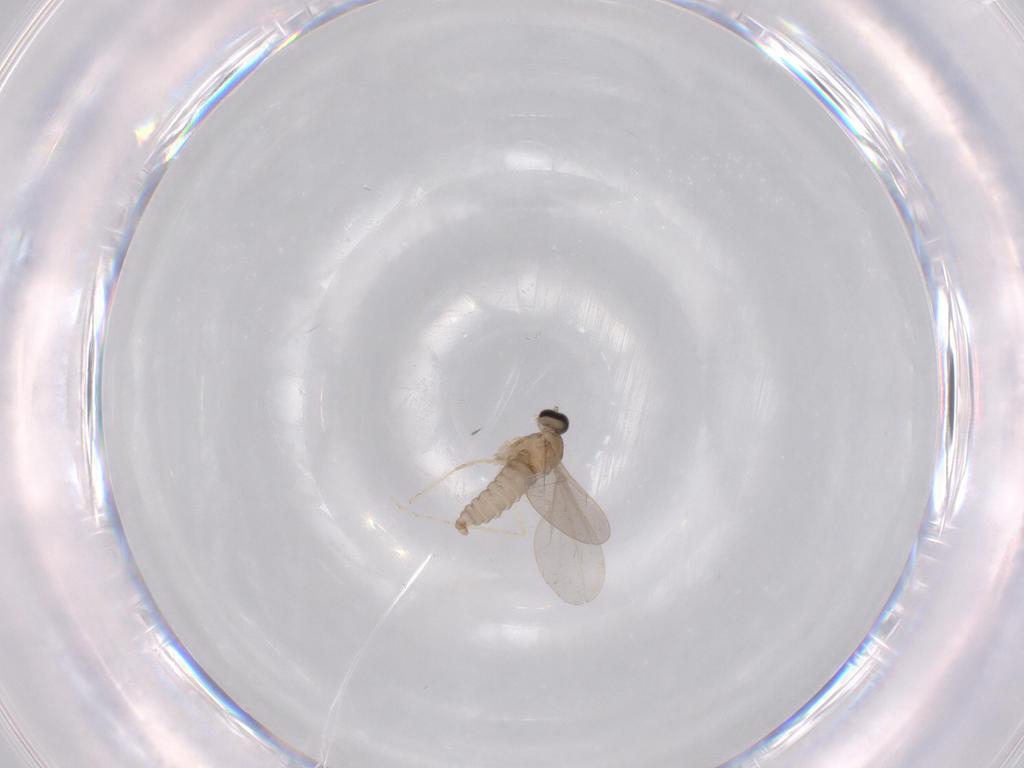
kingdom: Animalia
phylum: Arthropoda
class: Insecta
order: Diptera
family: Cecidomyiidae
